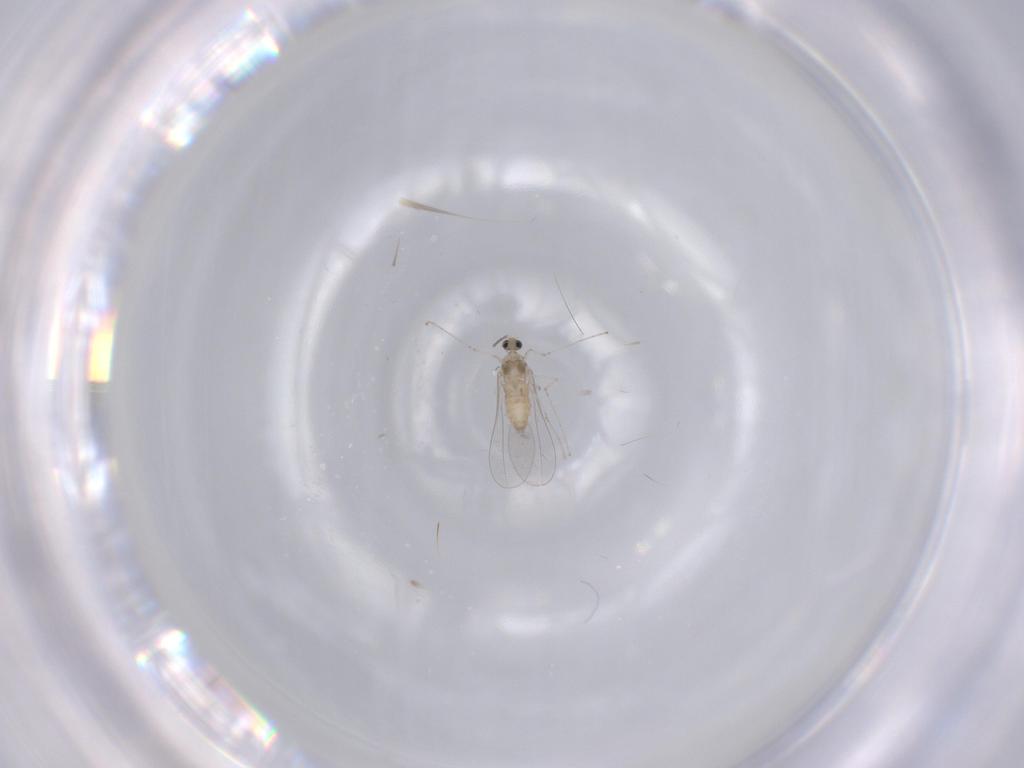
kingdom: Animalia
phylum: Arthropoda
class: Insecta
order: Diptera
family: Cecidomyiidae
